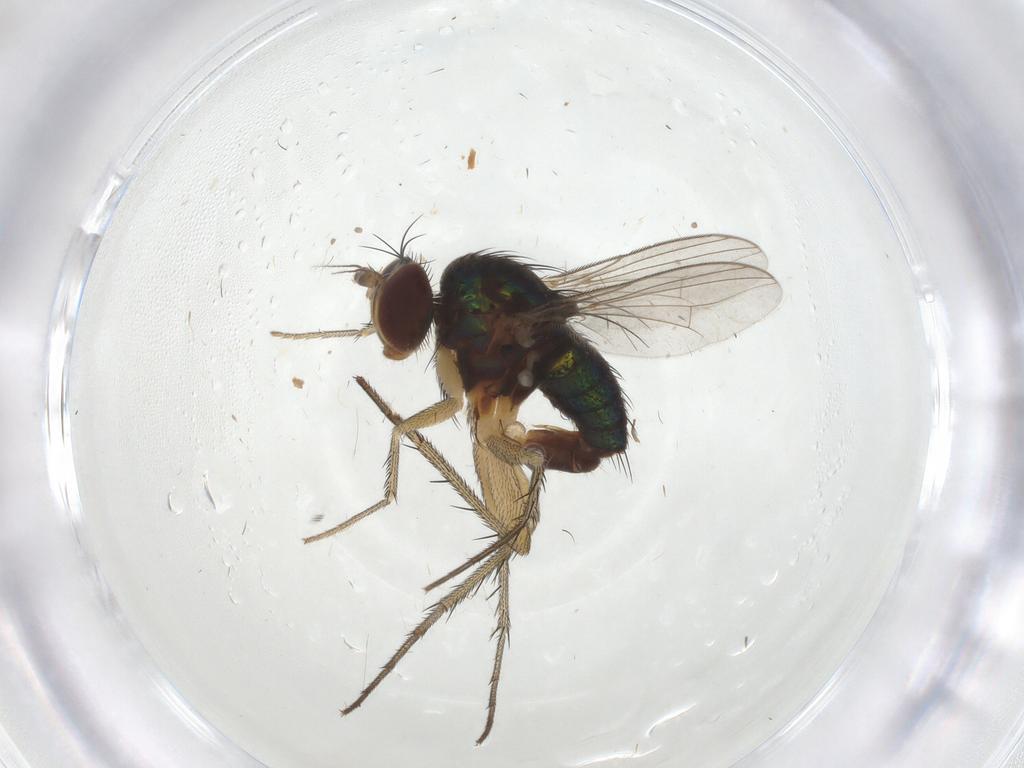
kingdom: Animalia
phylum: Arthropoda
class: Insecta
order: Diptera
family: Dolichopodidae
